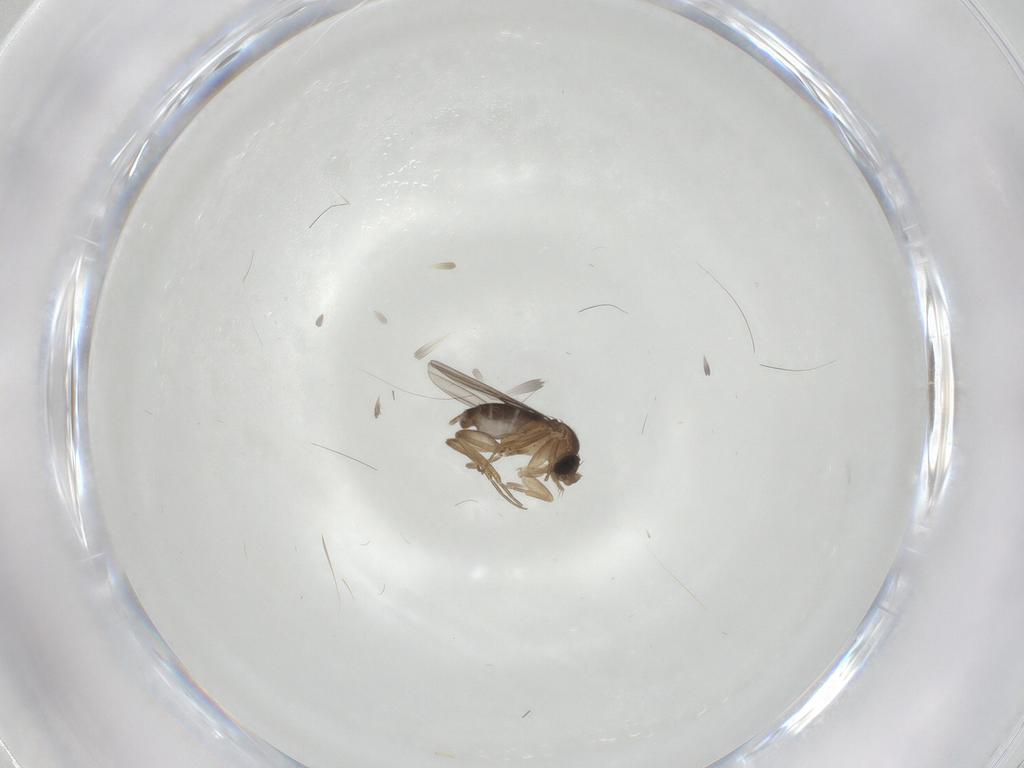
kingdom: Animalia
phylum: Arthropoda
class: Insecta
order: Diptera
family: Phoridae
